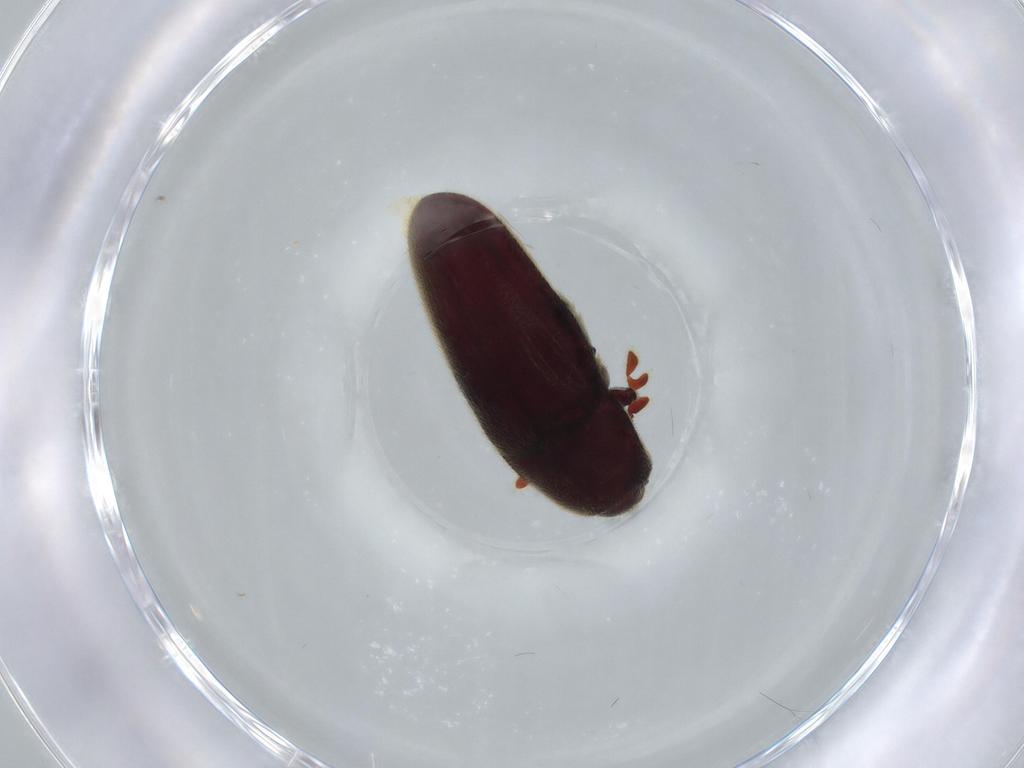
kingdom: Animalia
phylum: Arthropoda
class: Insecta
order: Coleoptera
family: Throscidae
